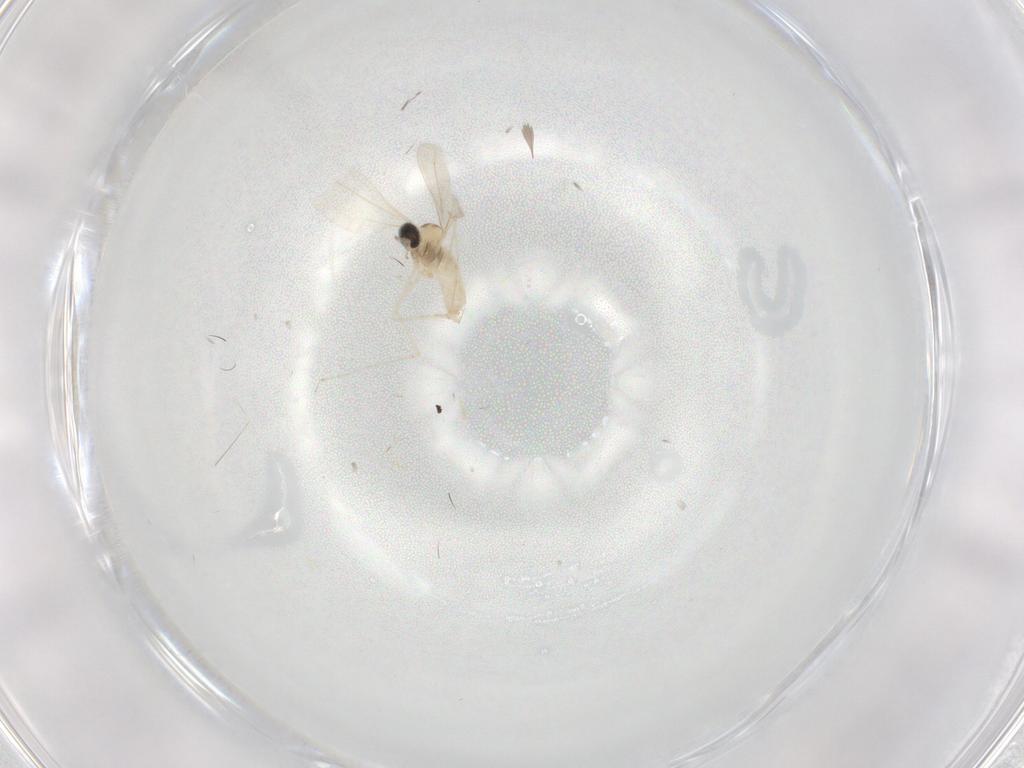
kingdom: Animalia
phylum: Arthropoda
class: Insecta
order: Diptera
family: Cecidomyiidae
